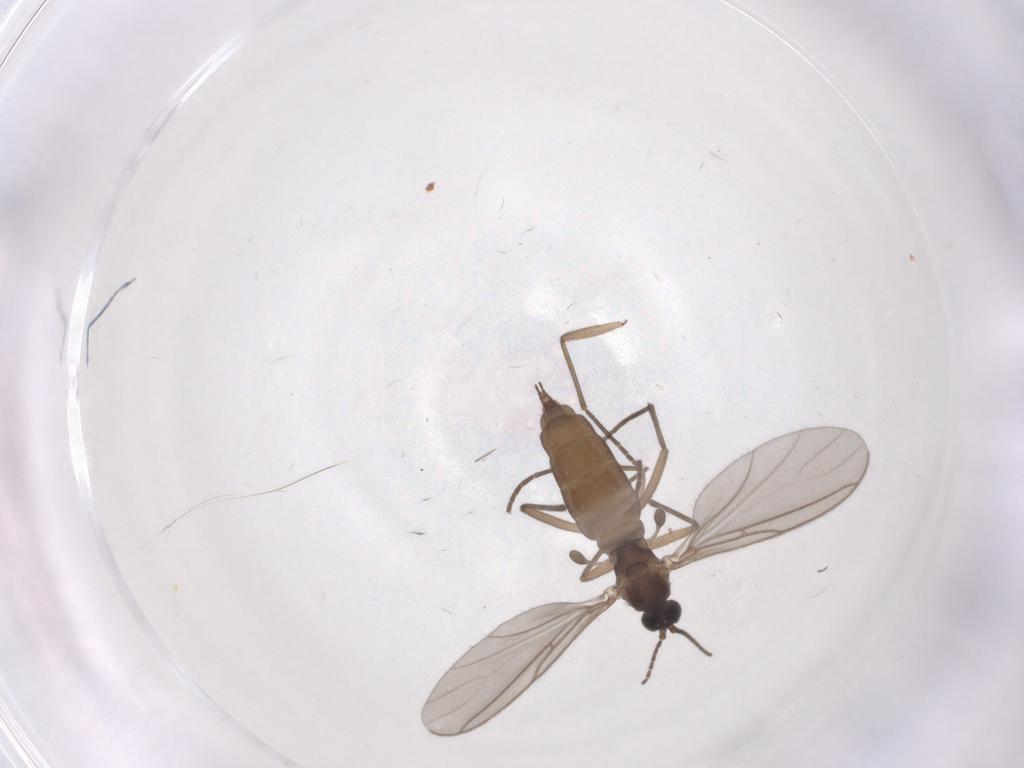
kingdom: Animalia
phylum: Arthropoda
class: Insecta
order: Diptera
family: Sciaridae
